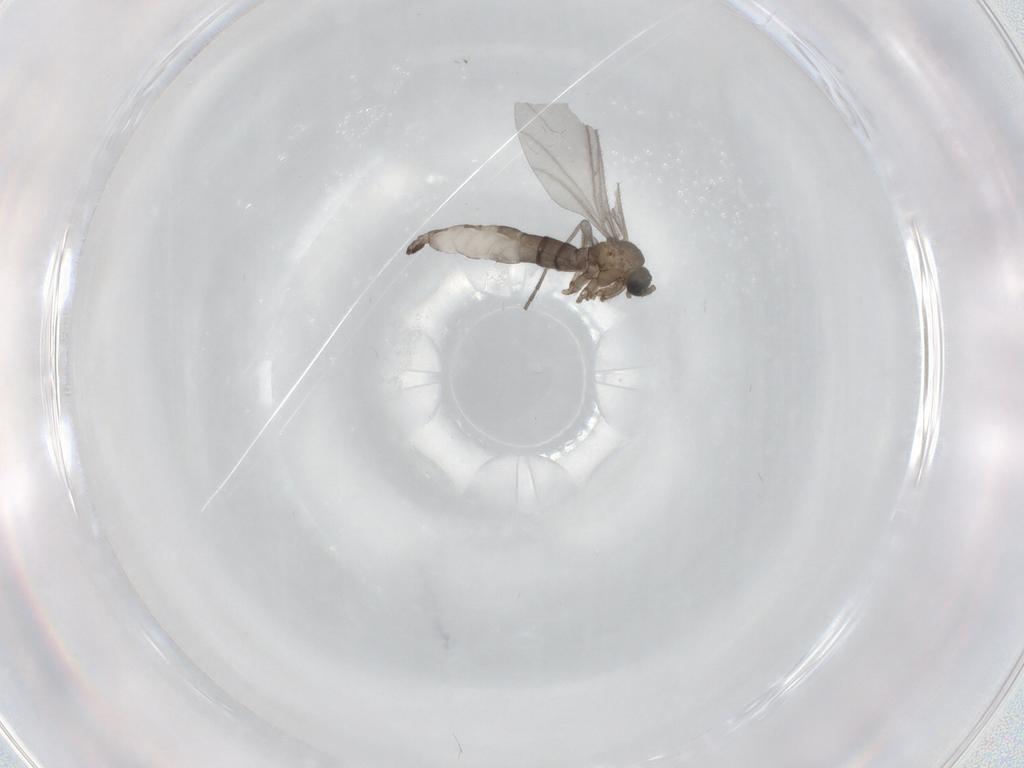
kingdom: Animalia
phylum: Arthropoda
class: Insecta
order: Diptera
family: Sciaridae
